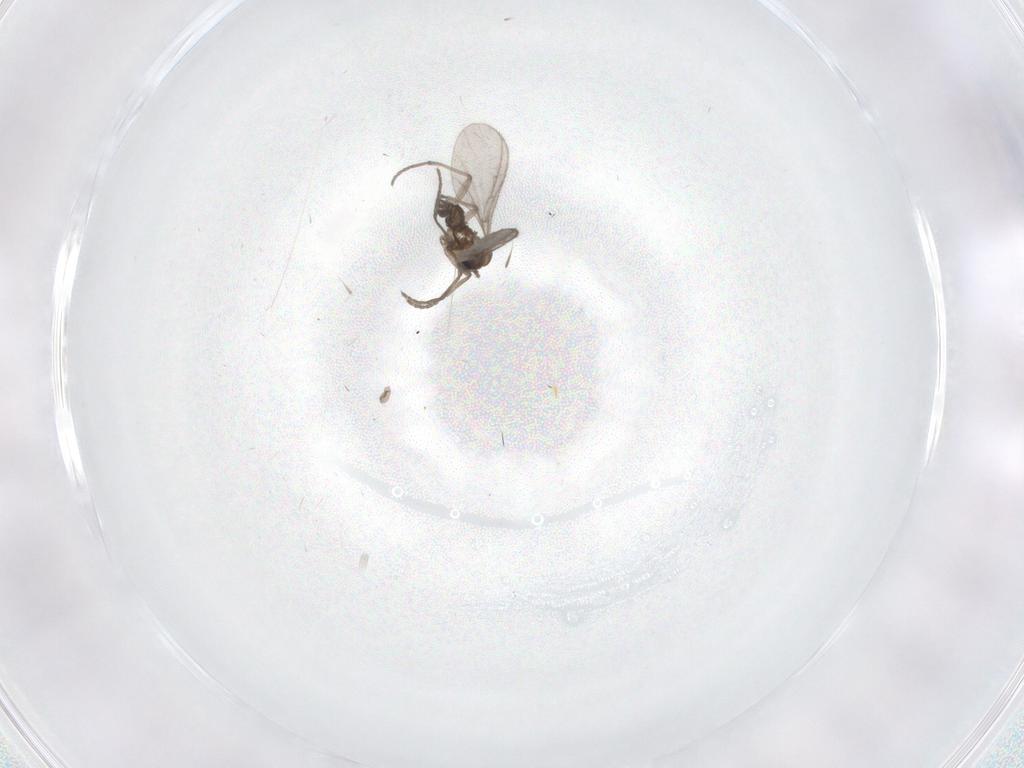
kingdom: Animalia
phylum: Arthropoda
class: Insecta
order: Diptera
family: Sciaridae
